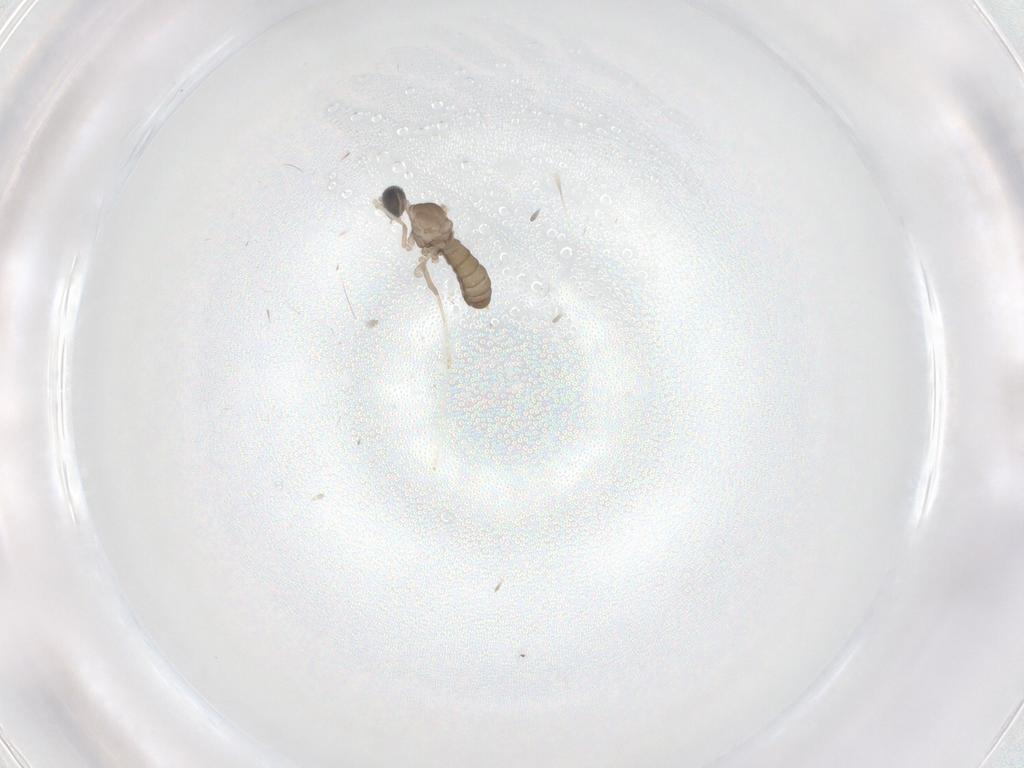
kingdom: Animalia
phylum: Arthropoda
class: Insecta
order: Diptera
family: Cecidomyiidae
